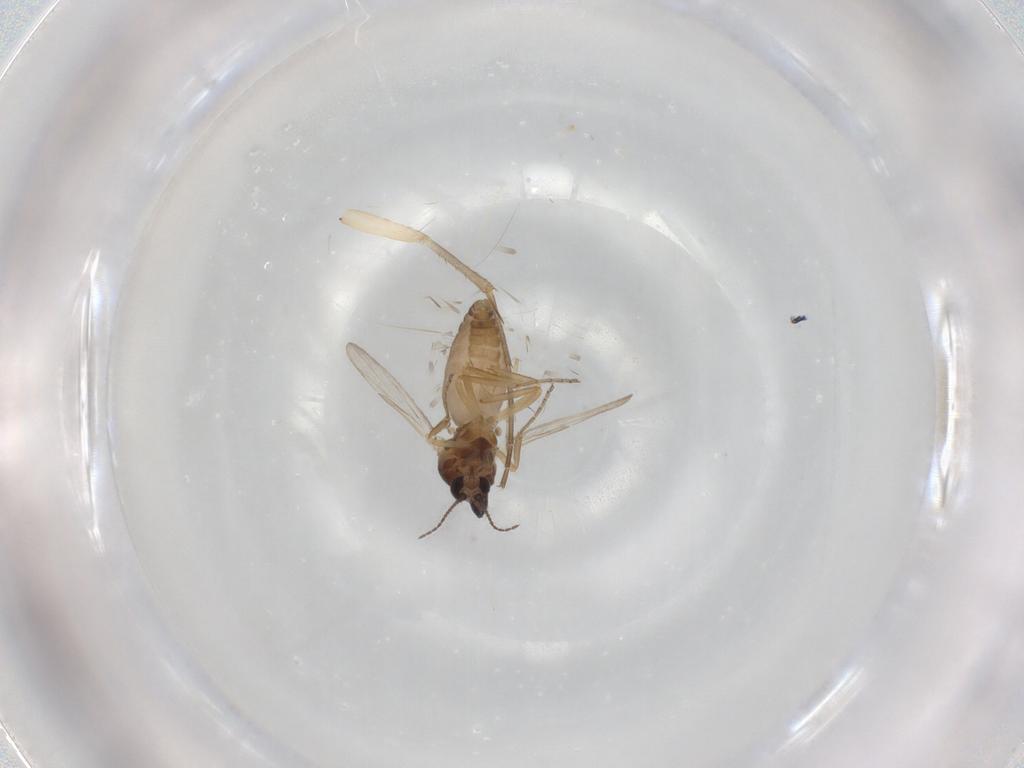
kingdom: Animalia
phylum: Arthropoda
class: Insecta
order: Diptera
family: Ceratopogonidae
